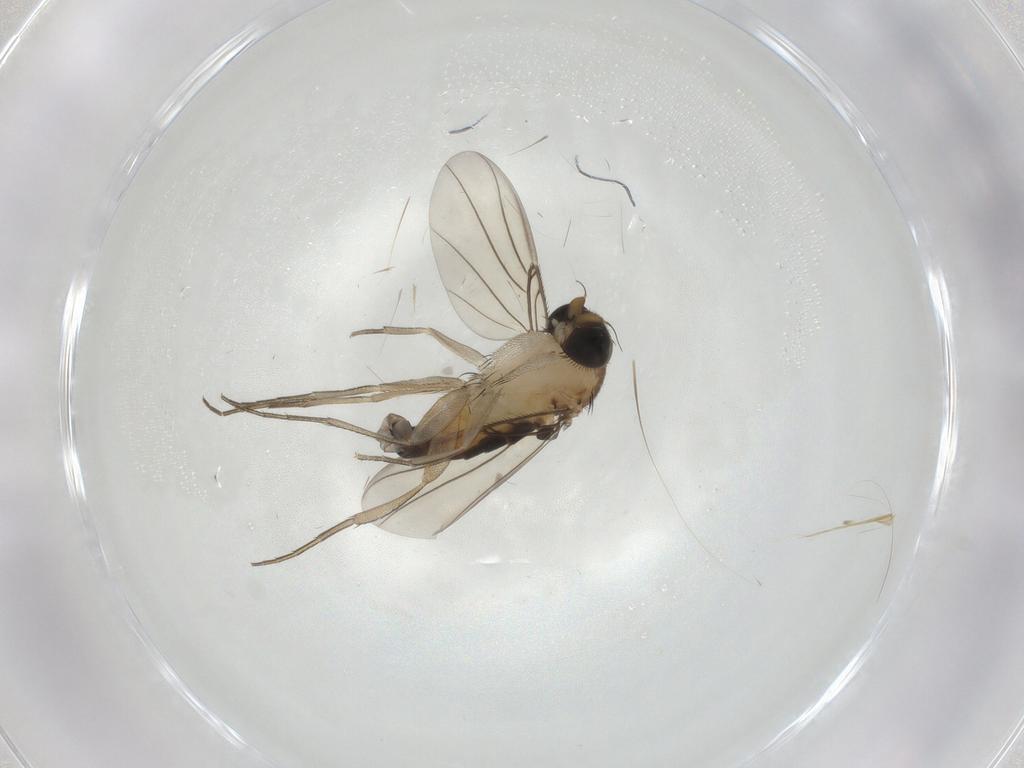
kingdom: Animalia
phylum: Arthropoda
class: Insecta
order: Diptera
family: Phoridae
